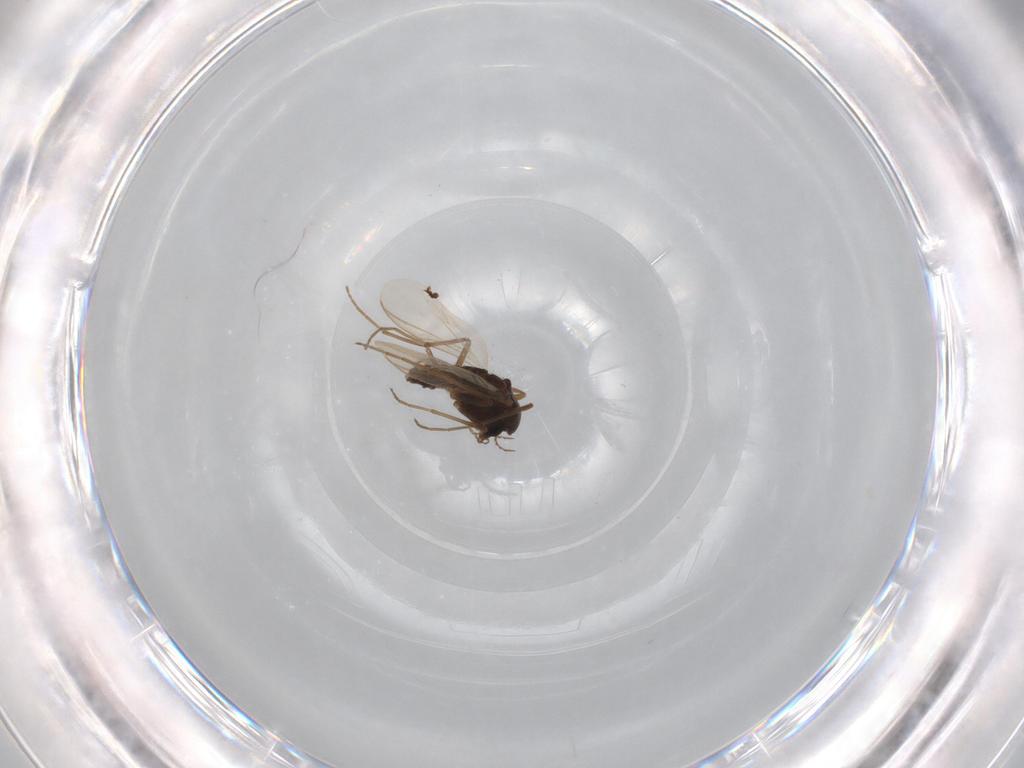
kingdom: Animalia
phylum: Arthropoda
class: Insecta
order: Diptera
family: Chironomidae
